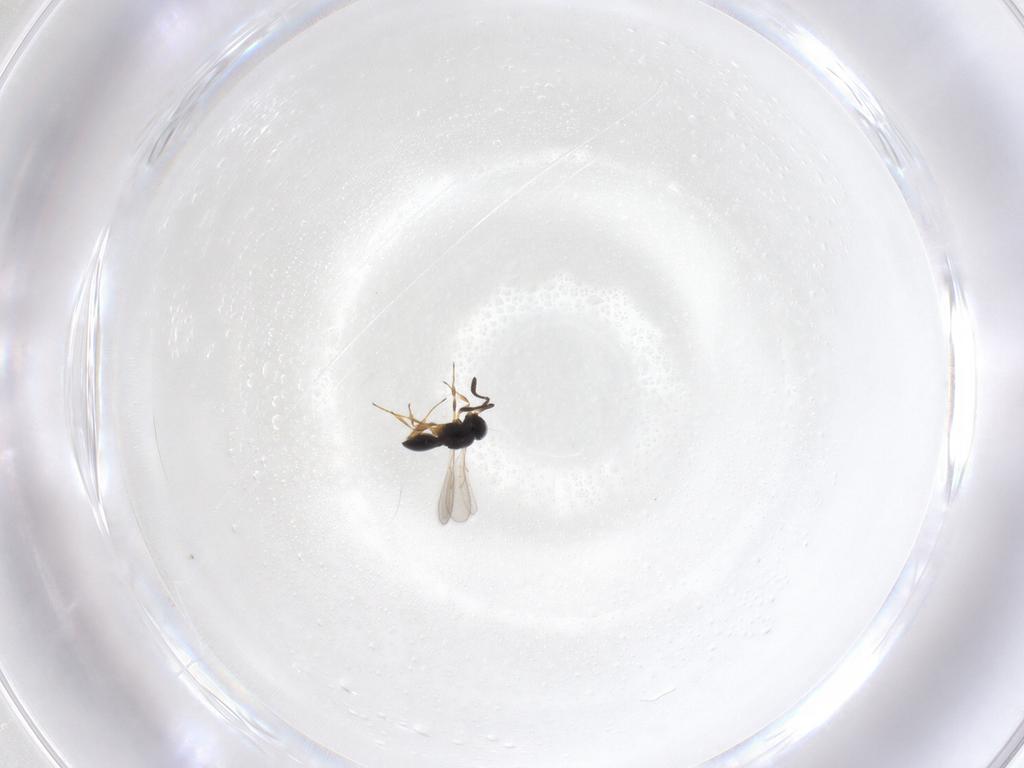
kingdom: Animalia
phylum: Arthropoda
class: Insecta
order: Hymenoptera
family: Scelionidae
